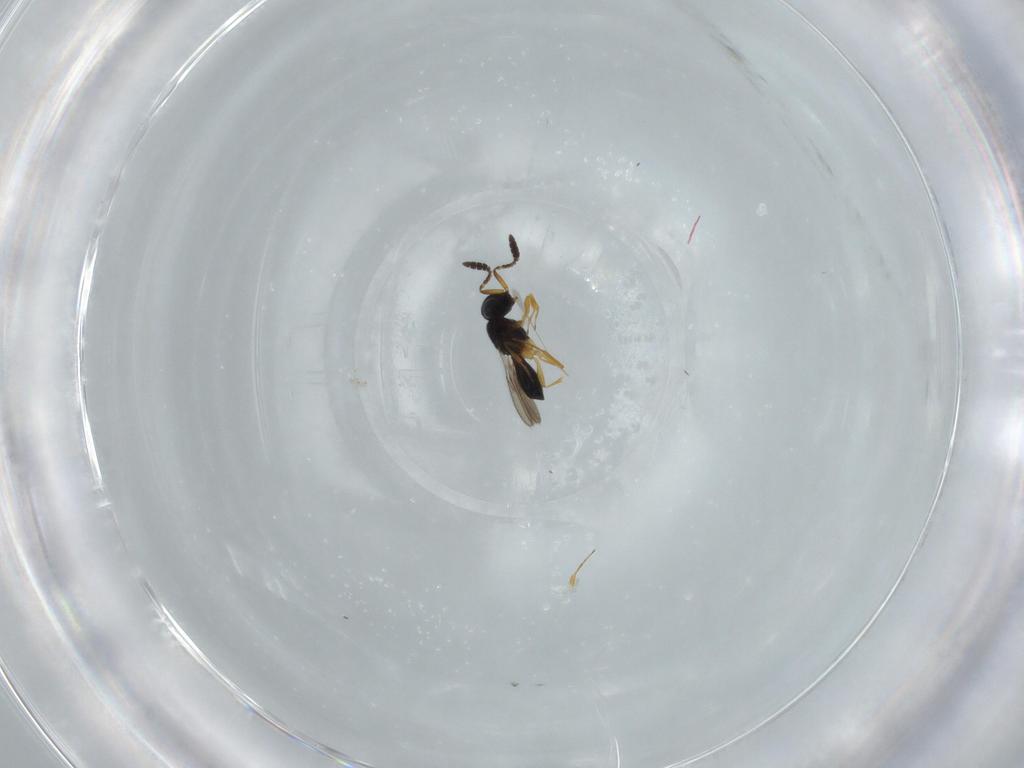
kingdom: Animalia
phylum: Arthropoda
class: Insecta
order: Hymenoptera
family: Scelionidae
